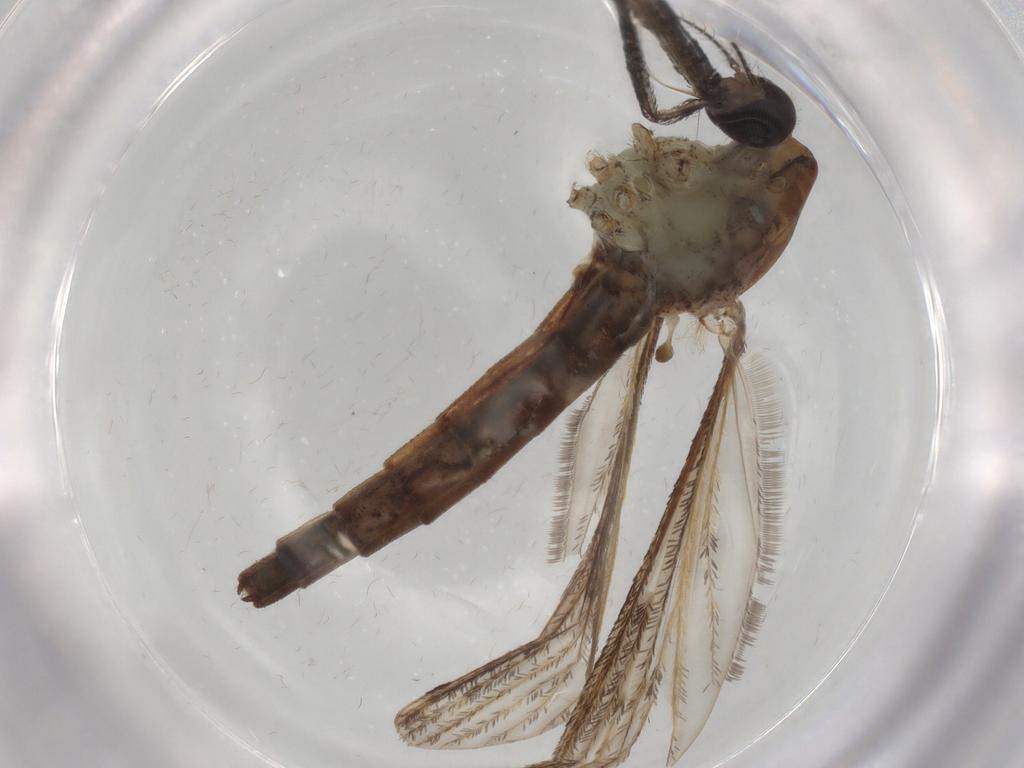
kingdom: Animalia
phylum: Arthropoda
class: Insecta
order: Diptera
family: Sciaridae
